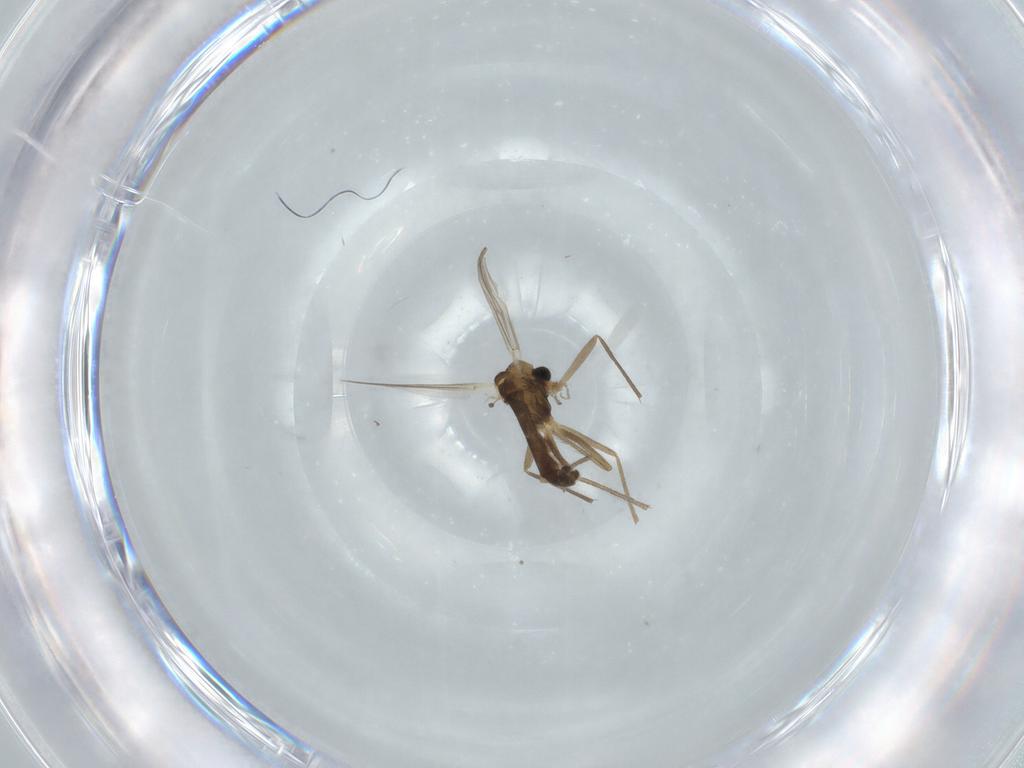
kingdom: Animalia
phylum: Arthropoda
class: Insecta
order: Diptera
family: Chironomidae
